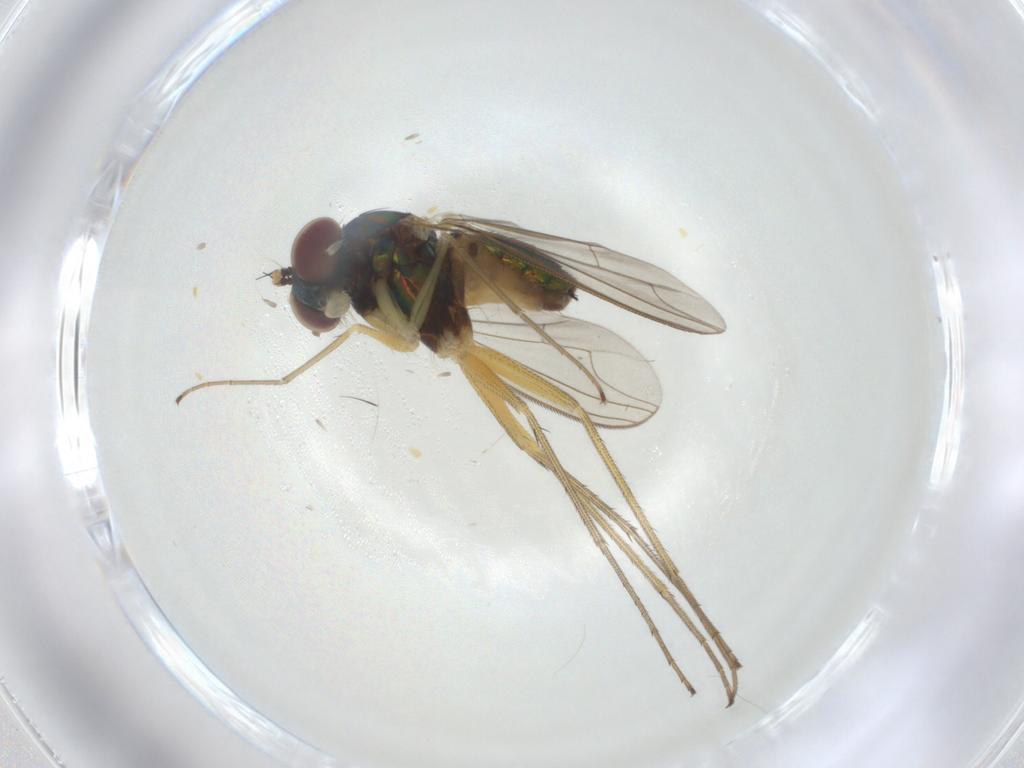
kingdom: Animalia
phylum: Arthropoda
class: Insecta
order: Diptera
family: Dolichopodidae
